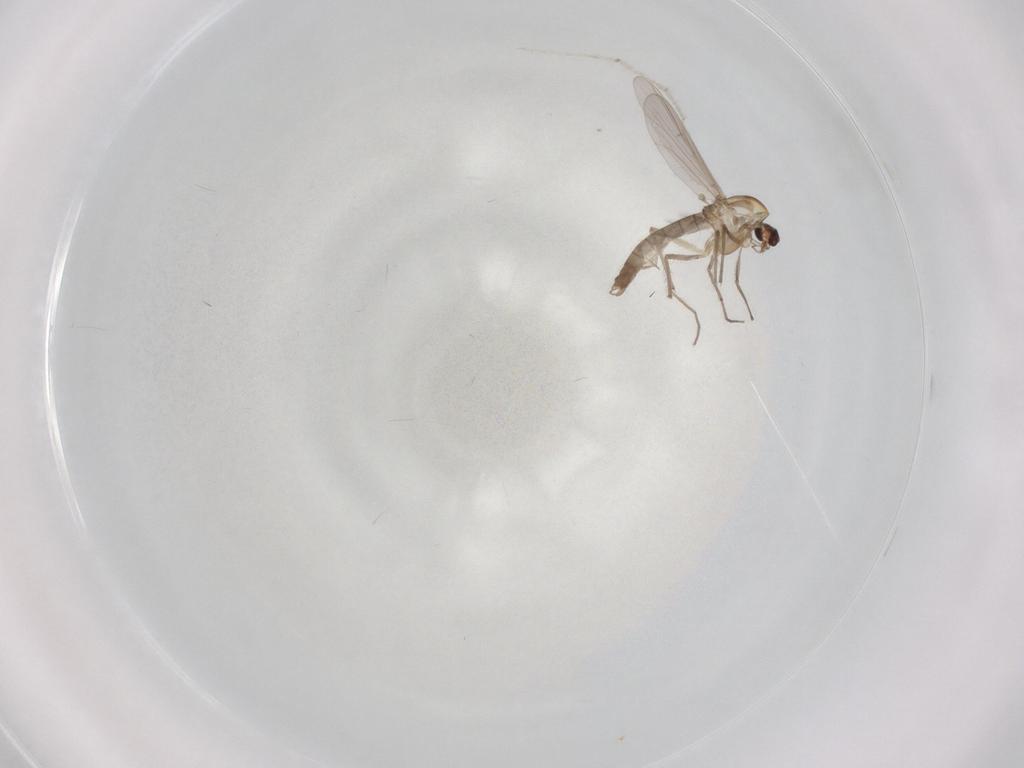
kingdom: Animalia
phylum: Arthropoda
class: Insecta
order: Diptera
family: Chironomidae
